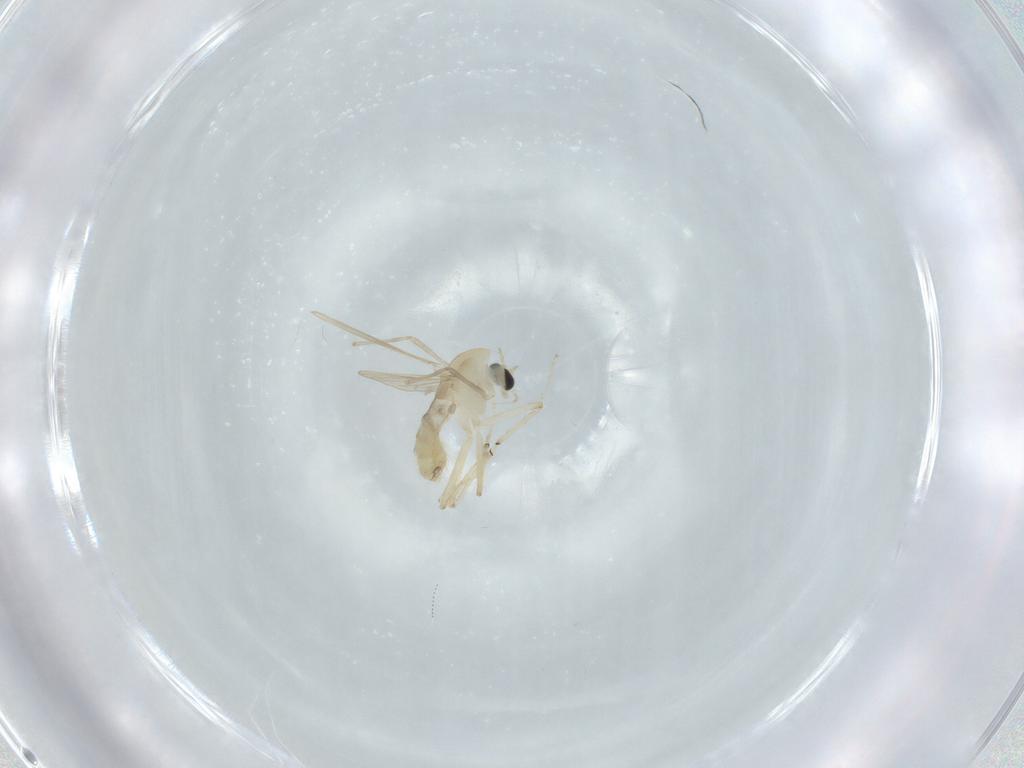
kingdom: Animalia
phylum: Arthropoda
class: Insecta
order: Diptera
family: Chironomidae
